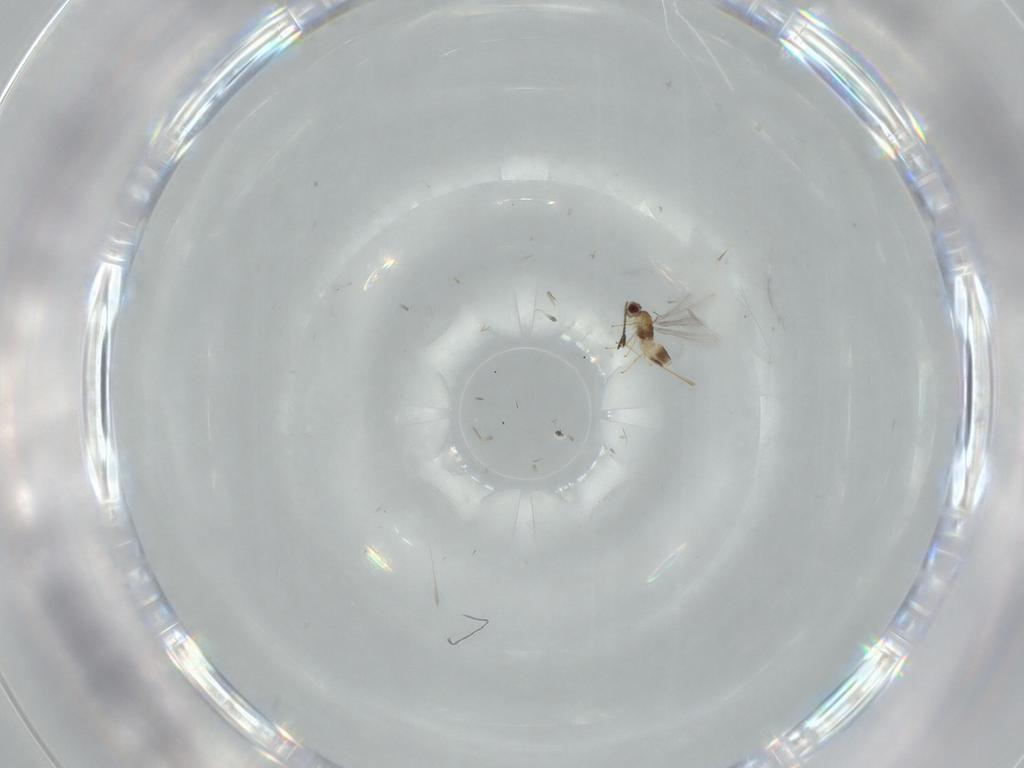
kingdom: Animalia
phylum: Arthropoda
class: Insecta
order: Hymenoptera
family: Mymaridae
